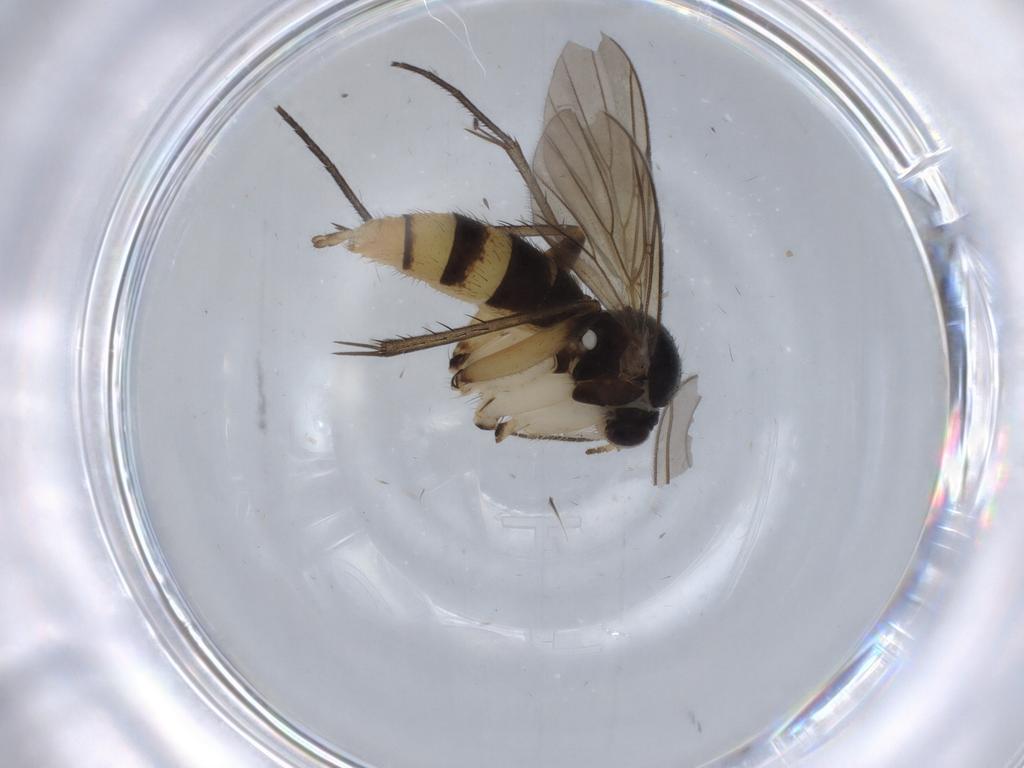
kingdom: Animalia
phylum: Arthropoda
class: Insecta
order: Diptera
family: Mycetophilidae
